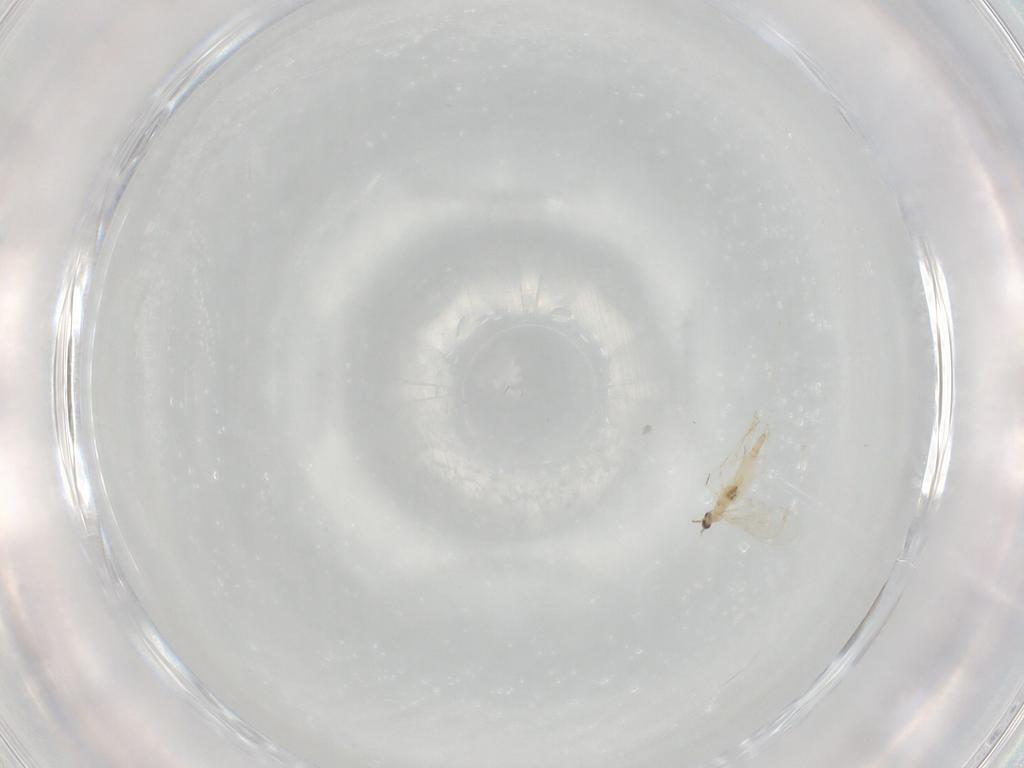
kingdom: Animalia
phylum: Arthropoda
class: Insecta
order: Diptera
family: Cecidomyiidae
